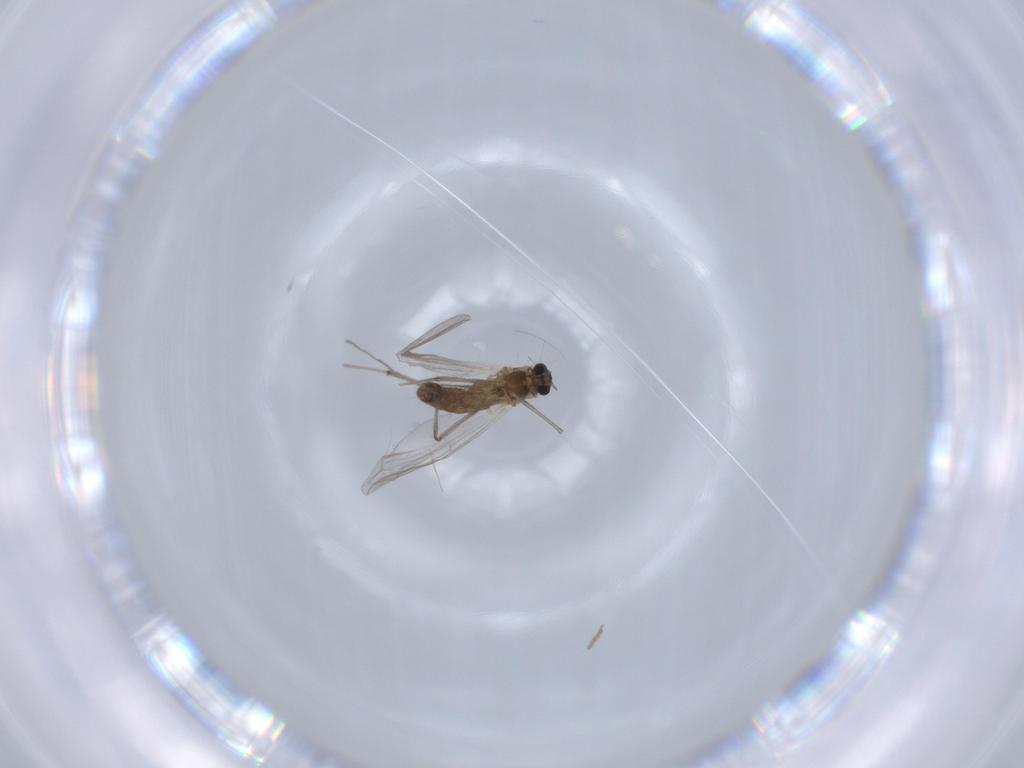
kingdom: Animalia
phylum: Arthropoda
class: Insecta
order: Diptera
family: Chironomidae
